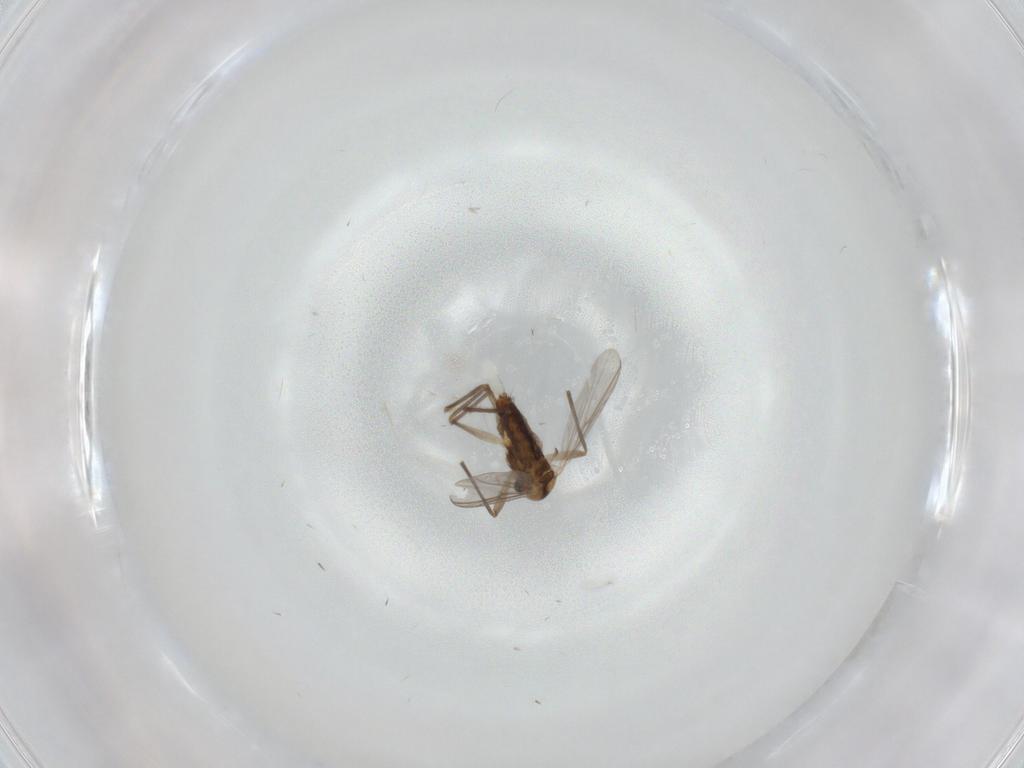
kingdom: Animalia
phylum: Arthropoda
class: Insecta
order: Diptera
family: Chironomidae
